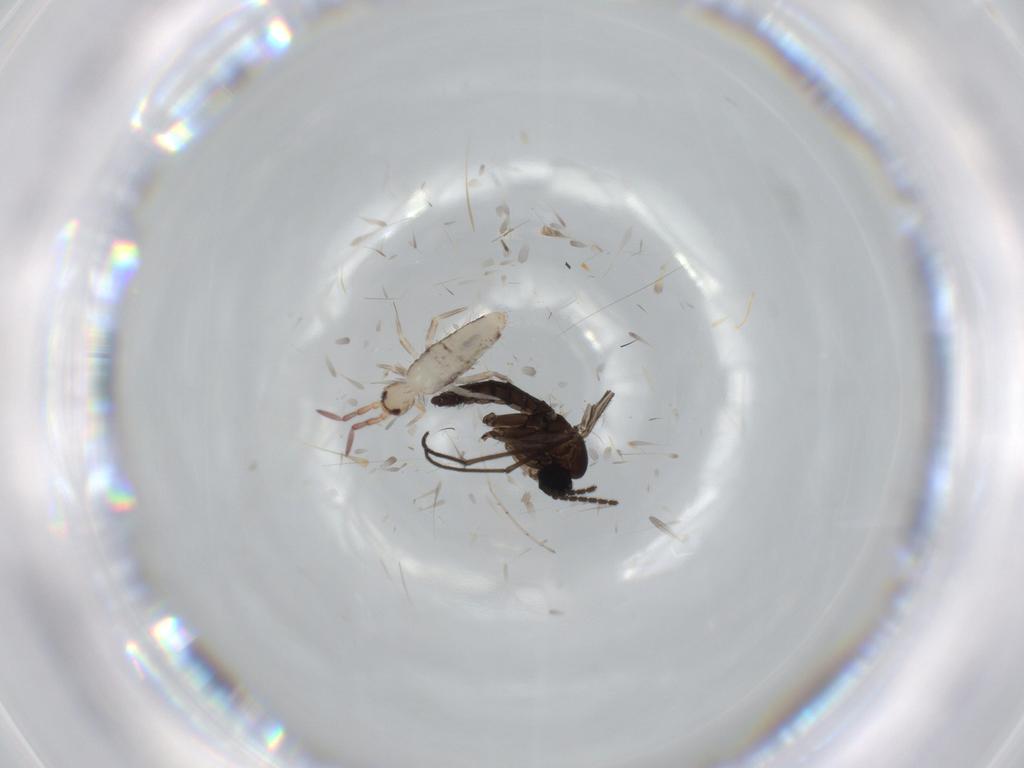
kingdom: Animalia
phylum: Arthropoda
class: Collembola
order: Entomobryomorpha
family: Entomobryidae
